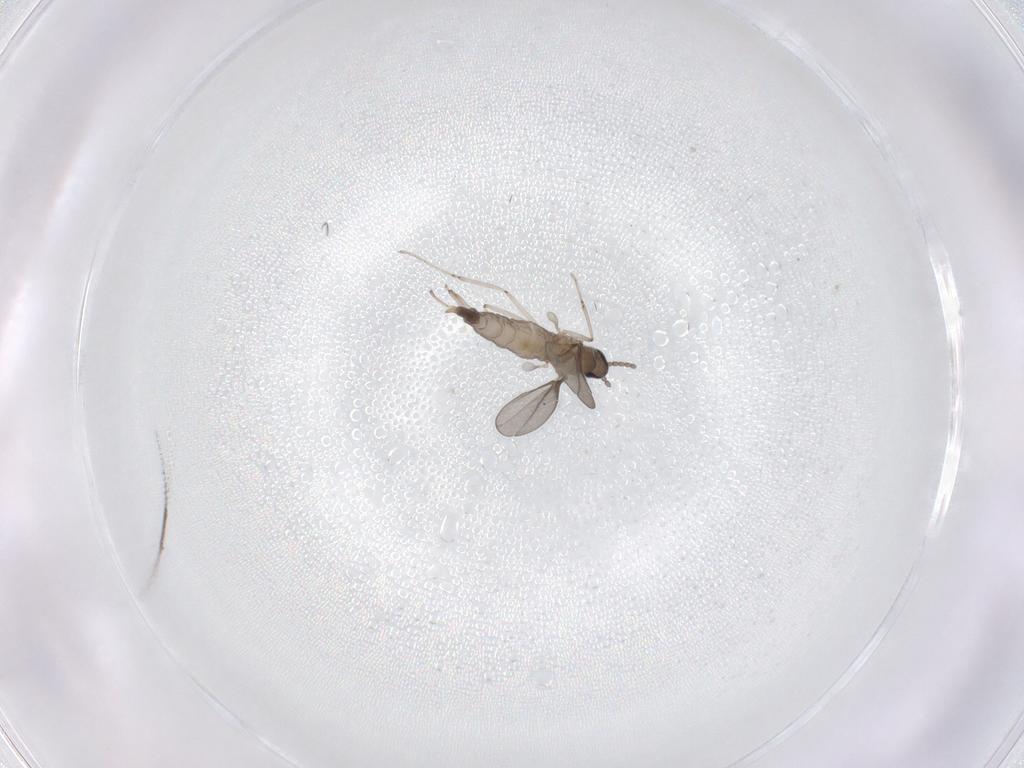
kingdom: Animalia
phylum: Arthropoda
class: Insecta
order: Diptera
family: Cecidomyiidae
